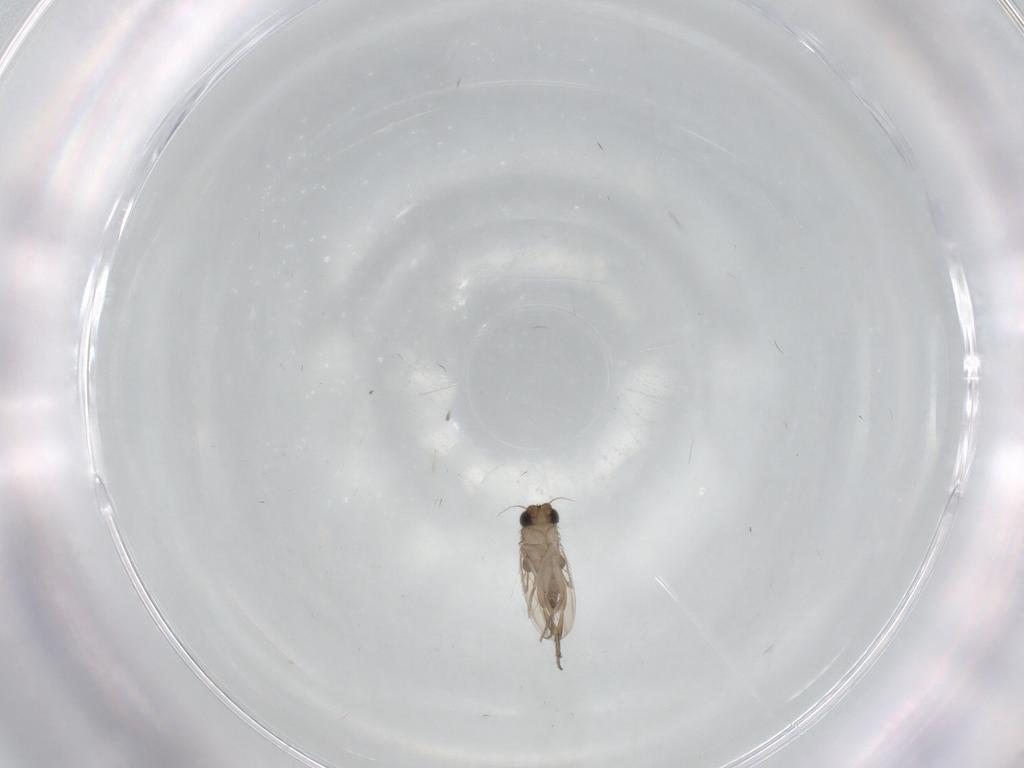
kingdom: Animalia
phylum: Arthropoda
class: Insecta
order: Diptera
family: Phoridae
